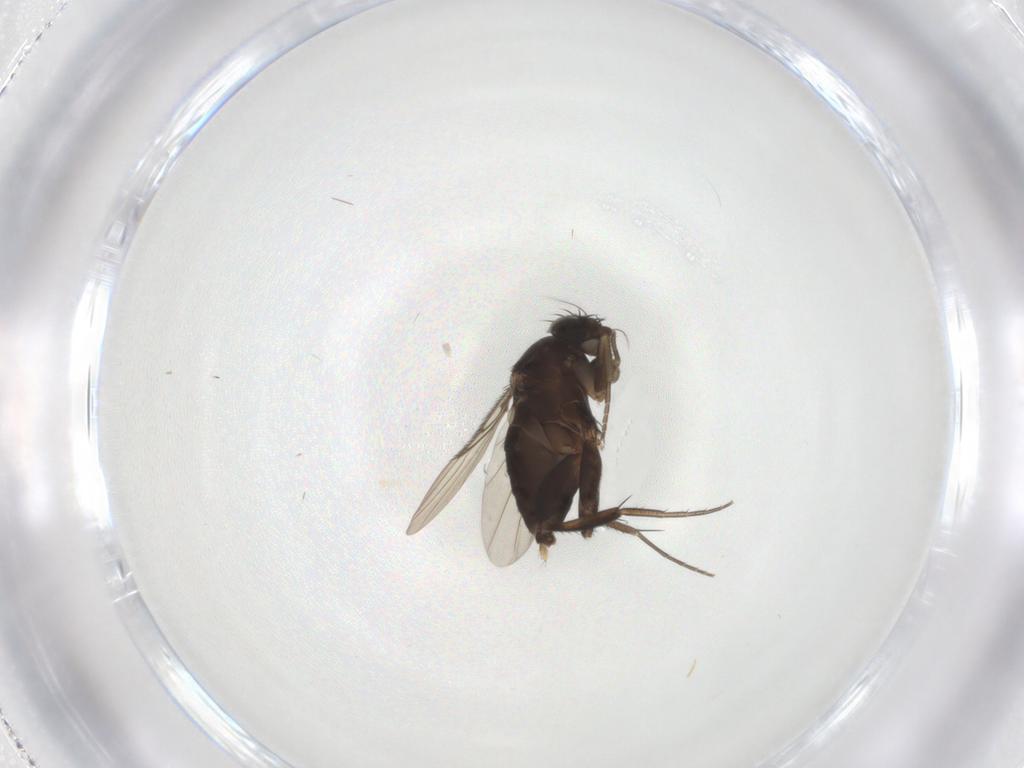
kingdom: Animalia
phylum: Arthropoda
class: Insecta
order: Diptera
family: Phoridae
